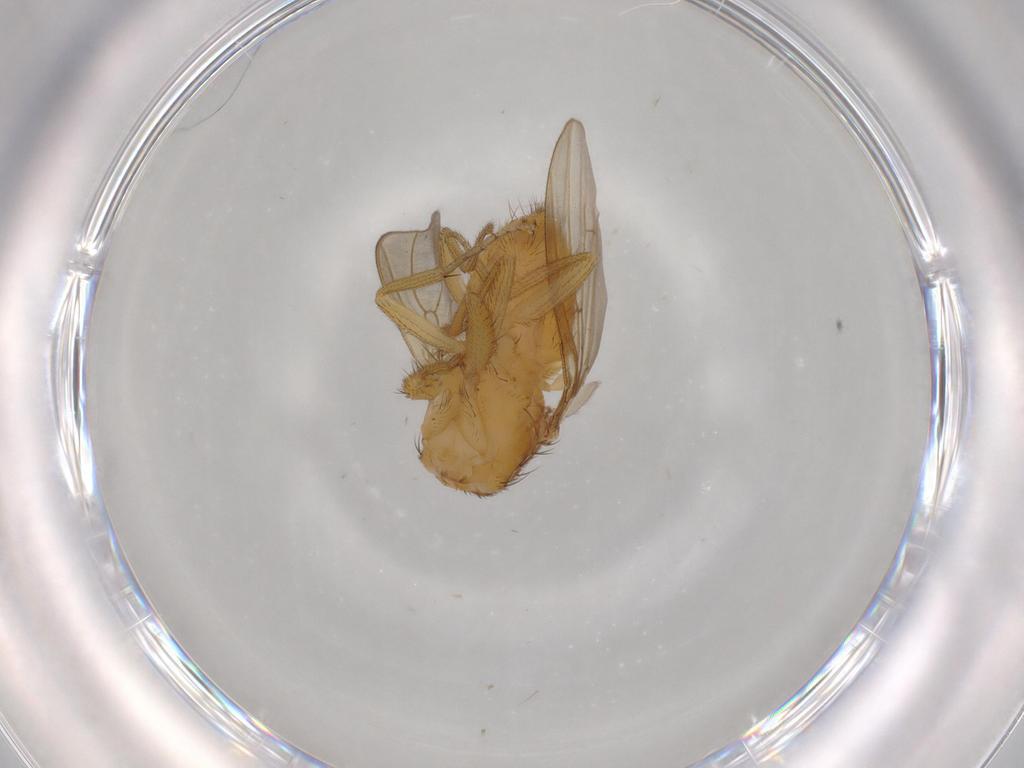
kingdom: Animalia
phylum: Arthropoda
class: Insecta
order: Diptera
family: Drosophilidae
